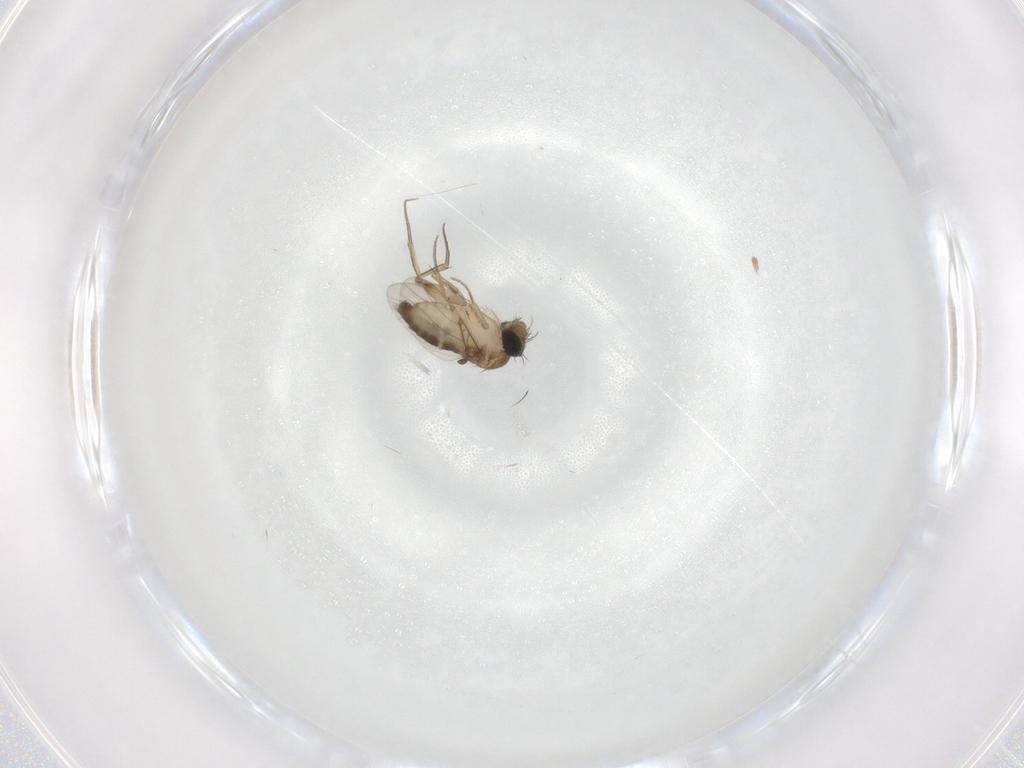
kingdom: Animalia
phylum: Arthropoda
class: Insecta
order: Diptera
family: Phoridae
